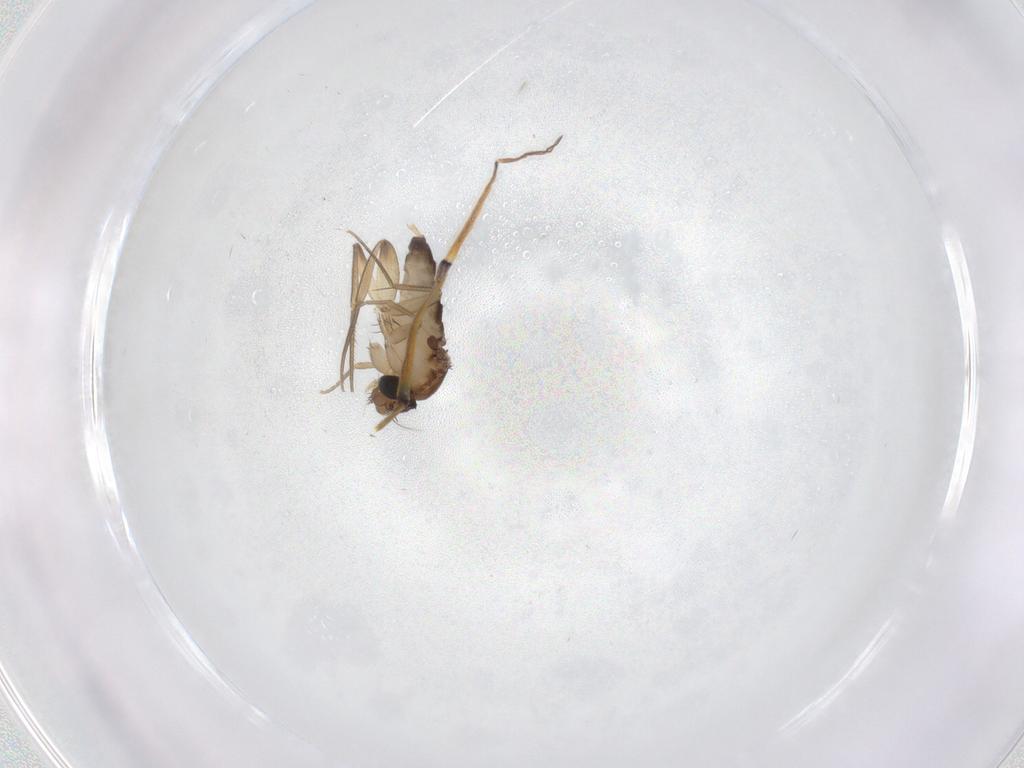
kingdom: Animalia
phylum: Arthropoda
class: Insecta
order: Diptera
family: Phoridae
